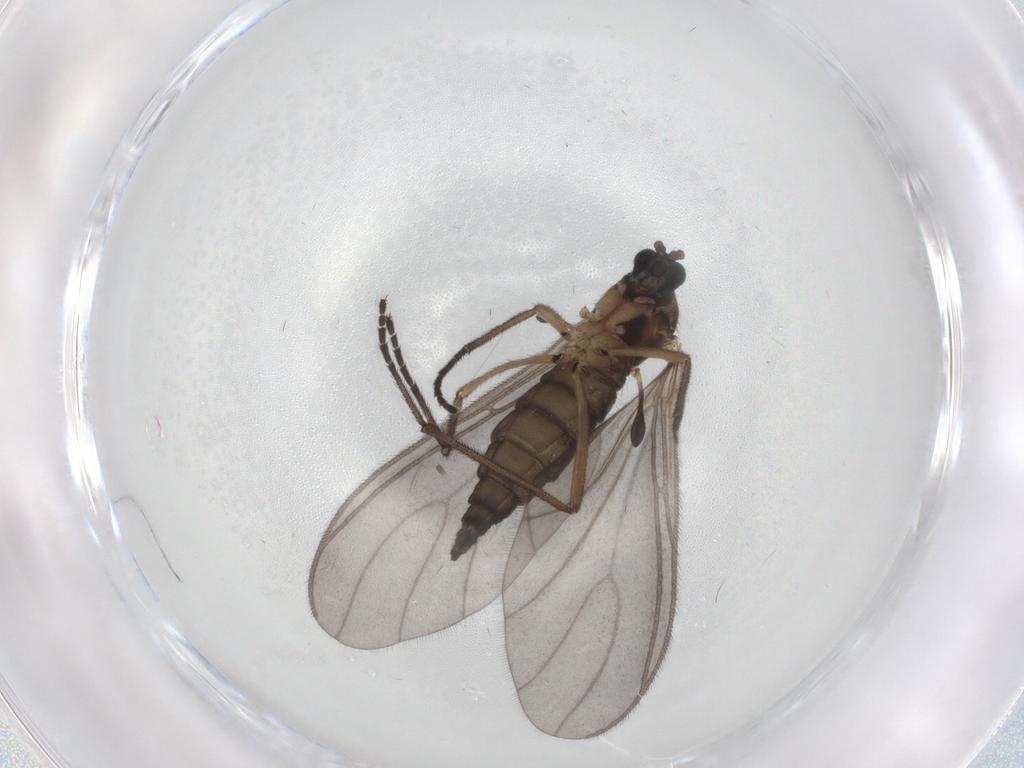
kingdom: Animalia
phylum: Arthropoda
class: Insecta
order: Diptera
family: Sciaridae
